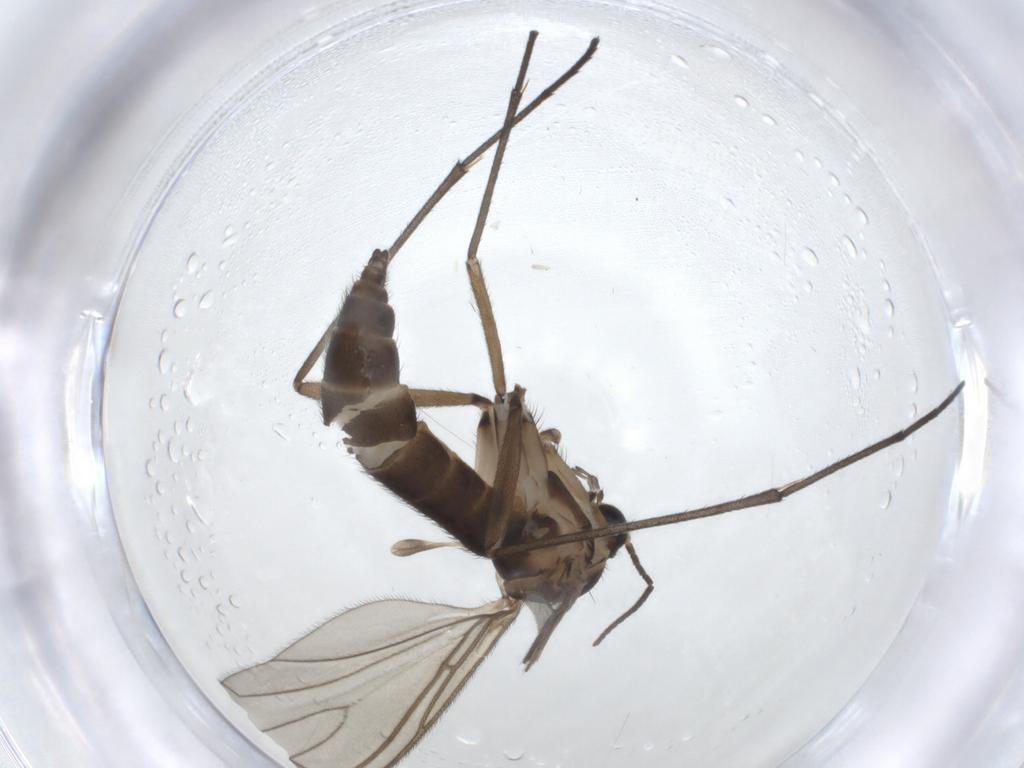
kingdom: Animalia
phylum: Arthropoda
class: Insecta
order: Diptera
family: Sciaridae
